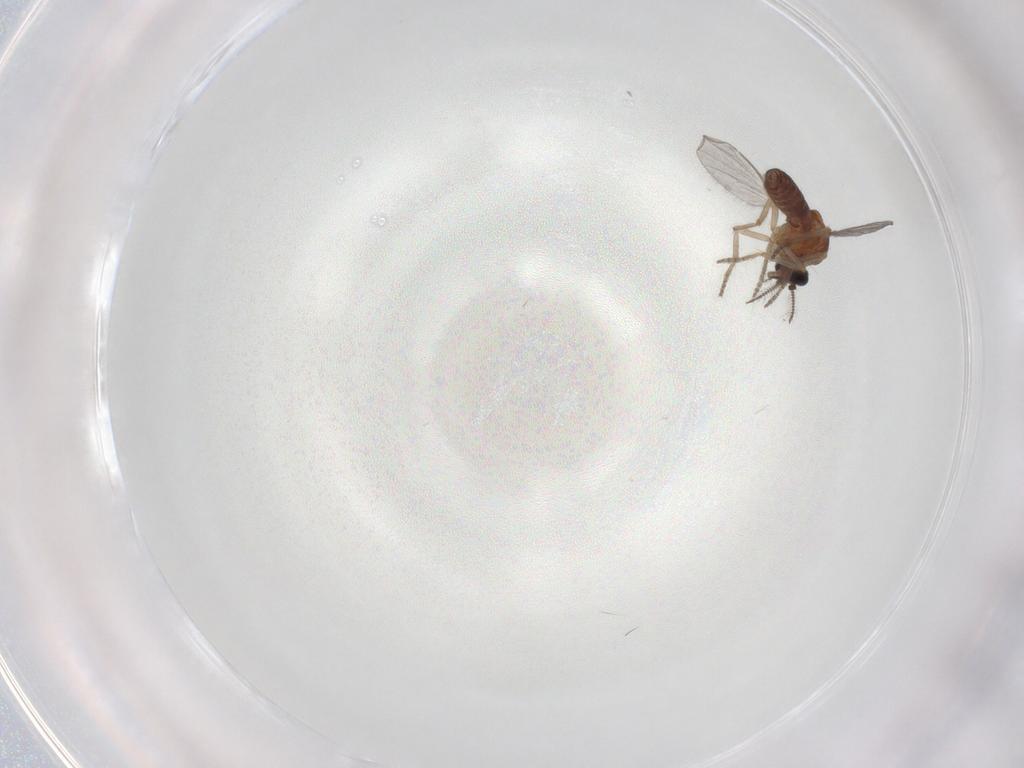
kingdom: Animalia
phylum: Arthropoda
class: Insecta
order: Diptera
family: Ceratopogonidae
